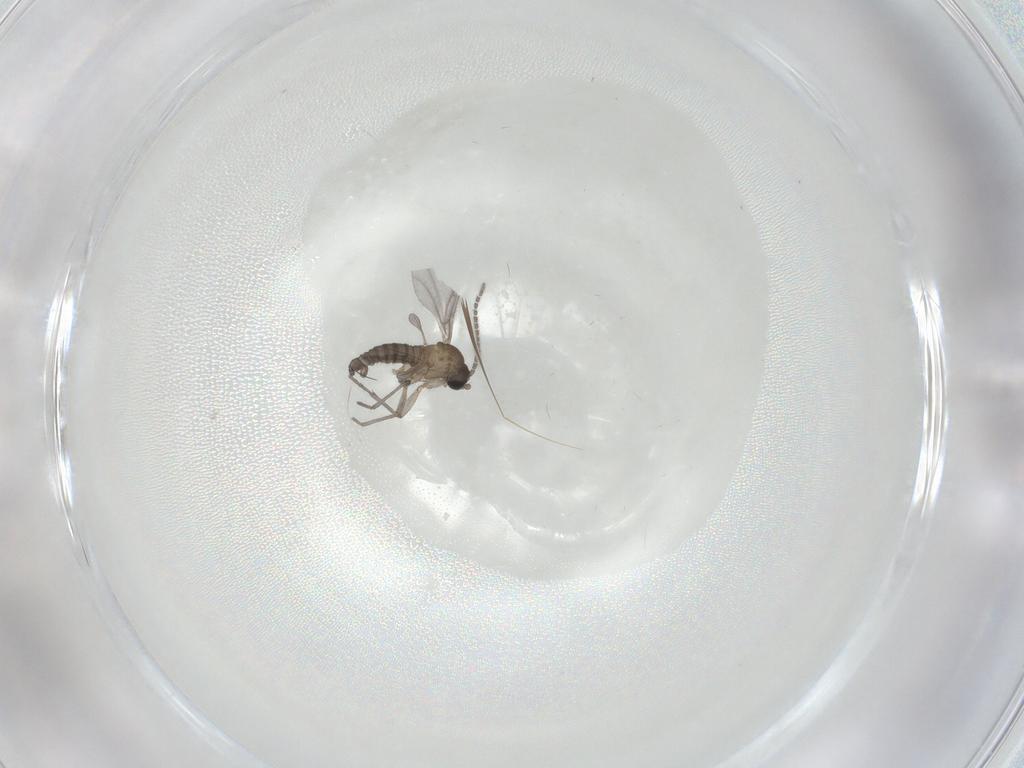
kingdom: Animalia
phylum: Arthropoda
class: Insecta
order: Diptera
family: Sciaridae
